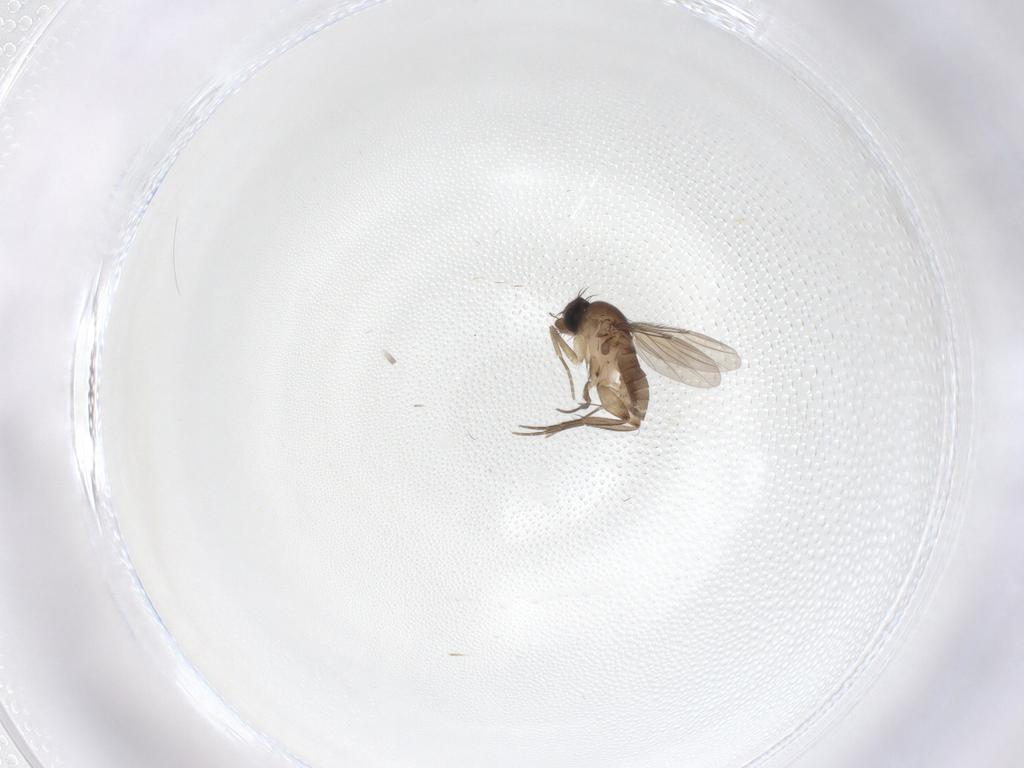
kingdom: Animalia
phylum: Arthropoda
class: Insecta
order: Diptera
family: Phoridae
